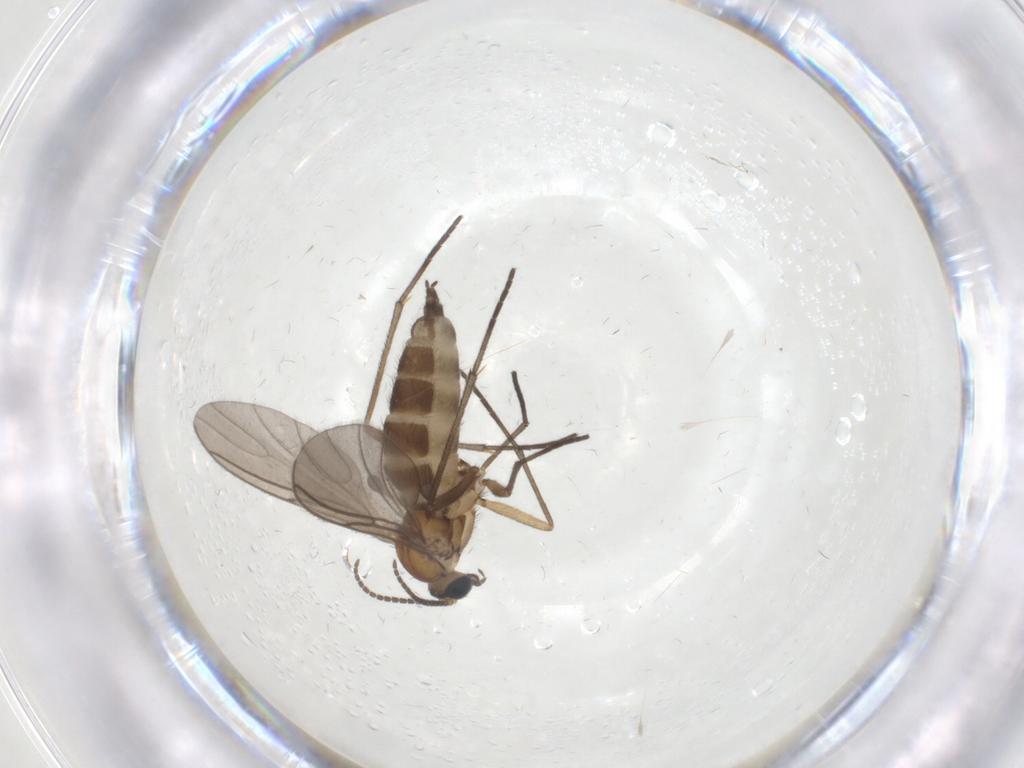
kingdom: Animalia
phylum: Arthropoda
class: Insecta
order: Diptera
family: Sciaridae
